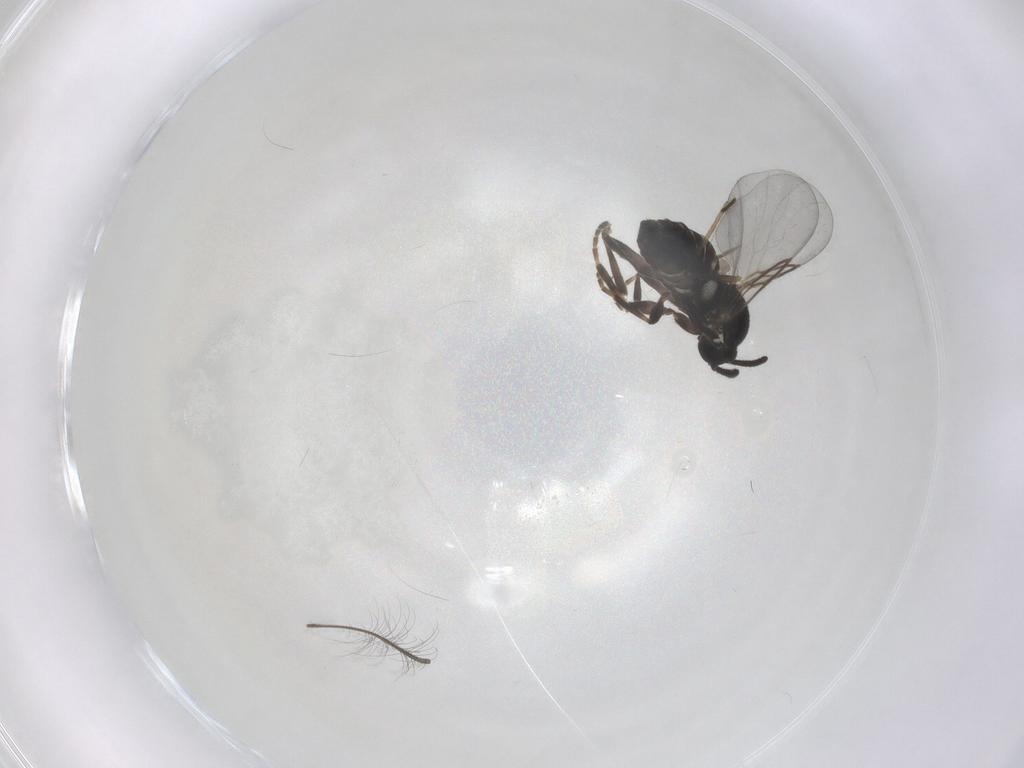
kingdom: Animalia
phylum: Arthropoda
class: Insecta
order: Diptera
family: Scatopsidae
